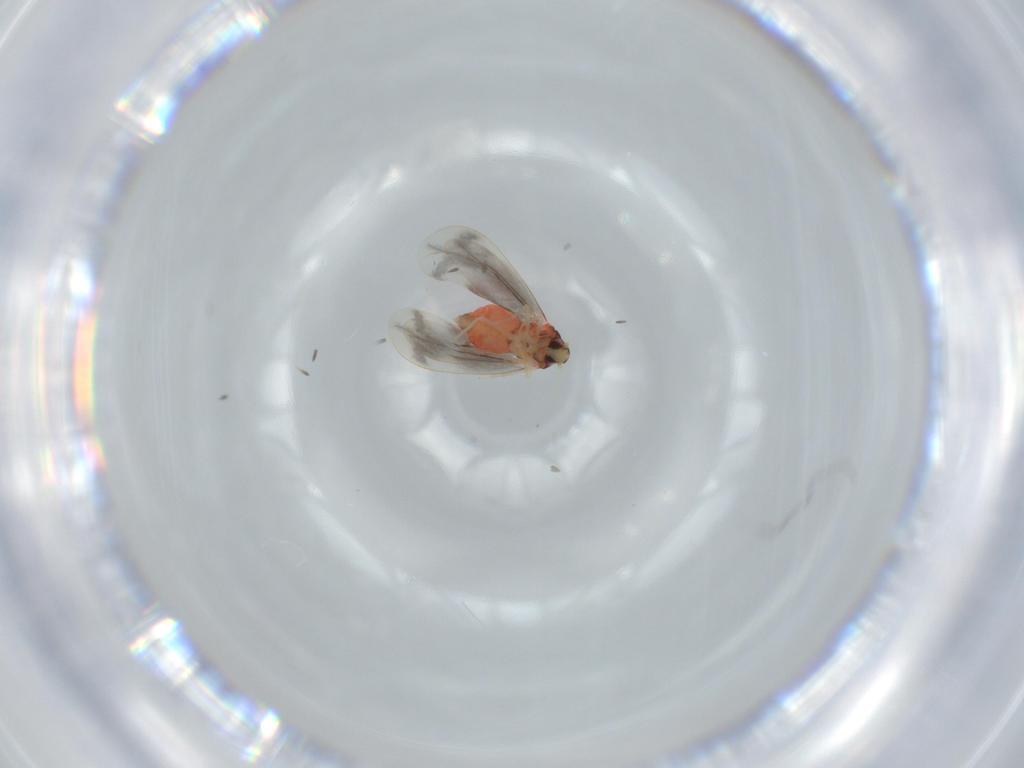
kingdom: Animalia
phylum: Arthropoda
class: Insecta
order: Hemiptera
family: Aleyrodidae
